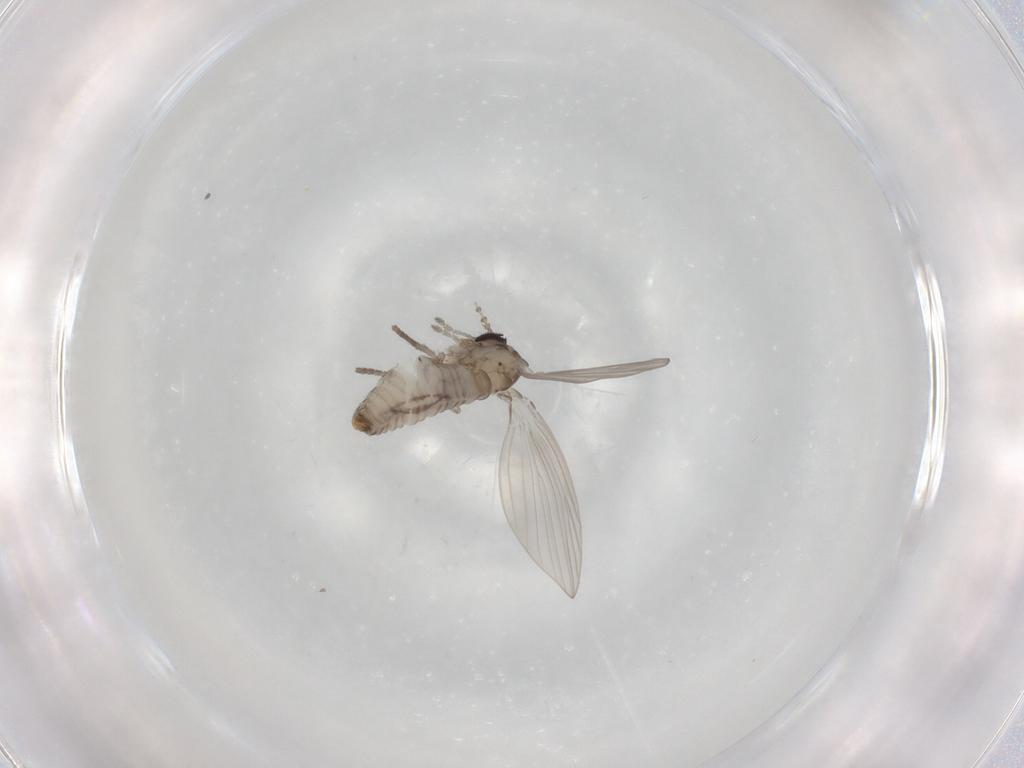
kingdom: Animalia
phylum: Arthropoda
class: Insecta
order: Diptera
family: Psychodidae
